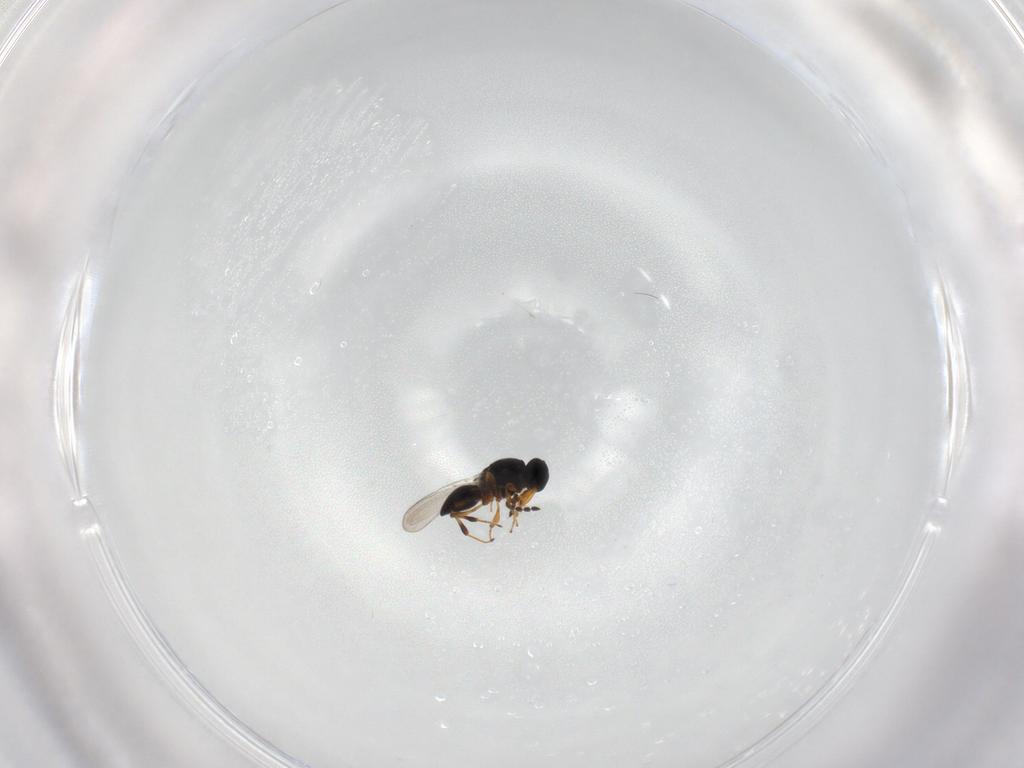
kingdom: Animalia
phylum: Arthropoda
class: Insecta
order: Hymenoptera
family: Platygastridae
